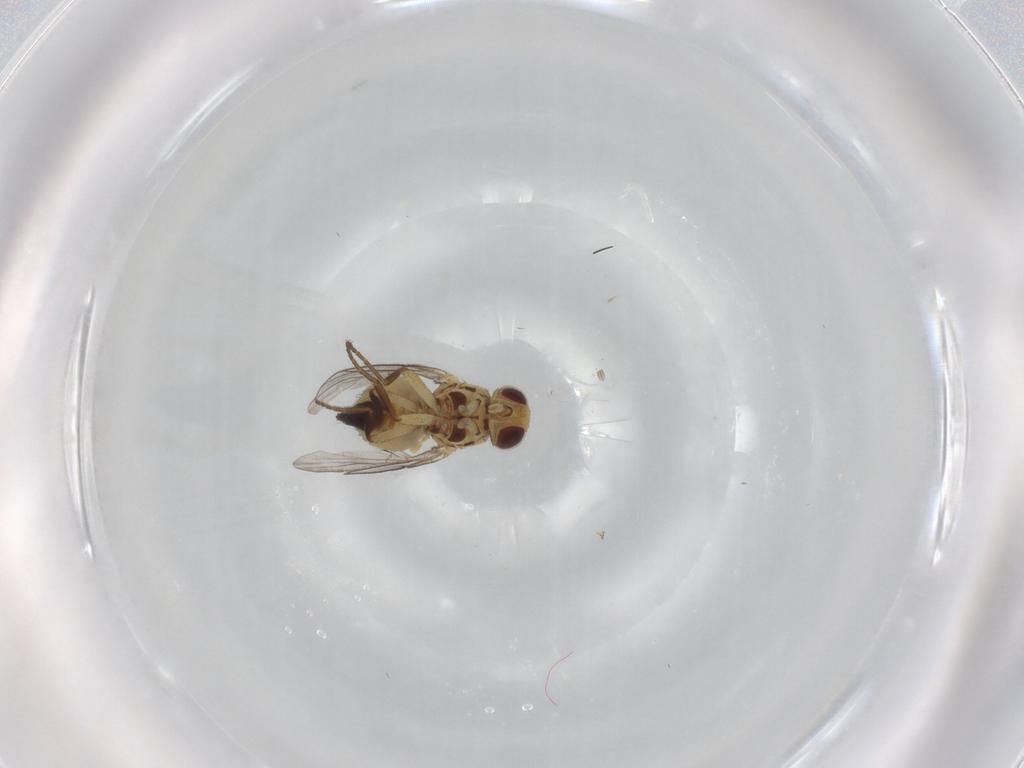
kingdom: Animalia
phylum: Arthropoda
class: Insecta
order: Diptera
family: Agromyzidae
